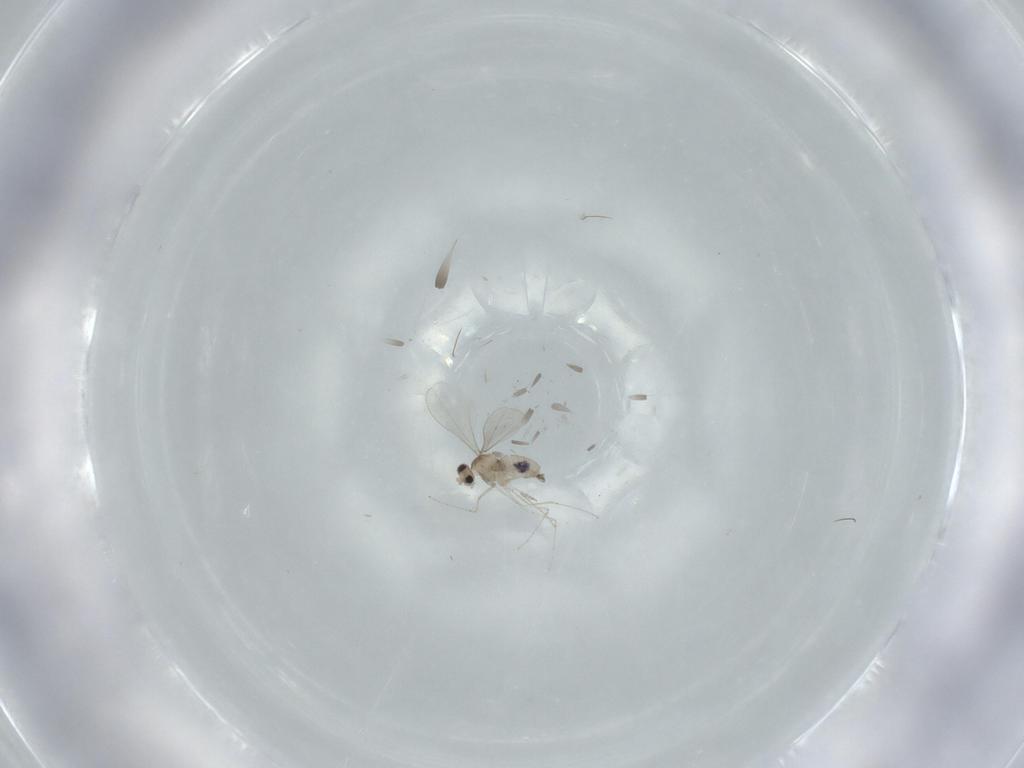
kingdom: Animalia
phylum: Arthropoda
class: Insecta
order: Diptera
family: Cecidomyiidae
